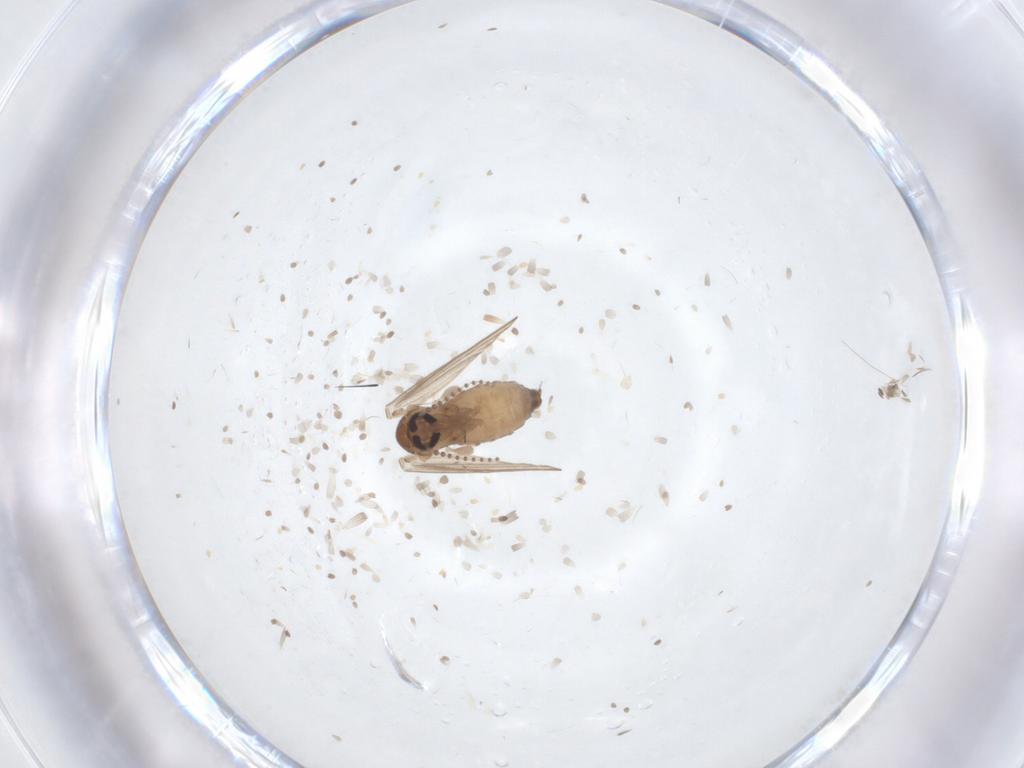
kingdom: Animalia
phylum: Arthropoda
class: Insecta
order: Diptera
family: Psychodidae
